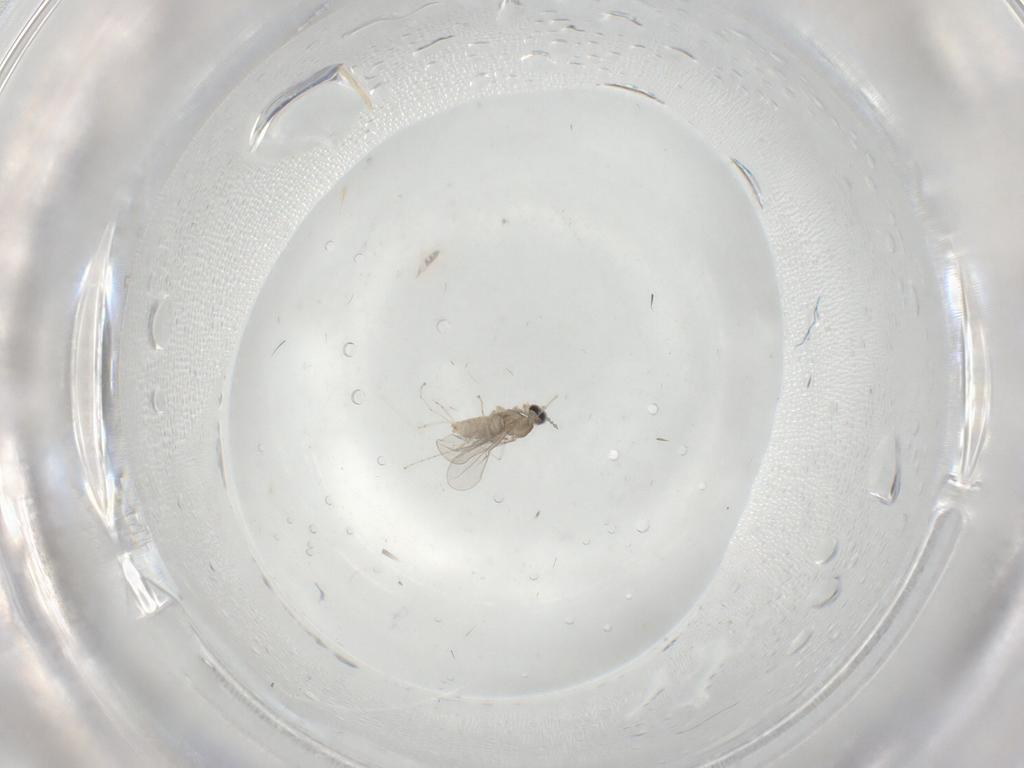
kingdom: Animalia
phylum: Arthropoda
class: Insecta
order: Diptera
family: Cecidomyiidae
